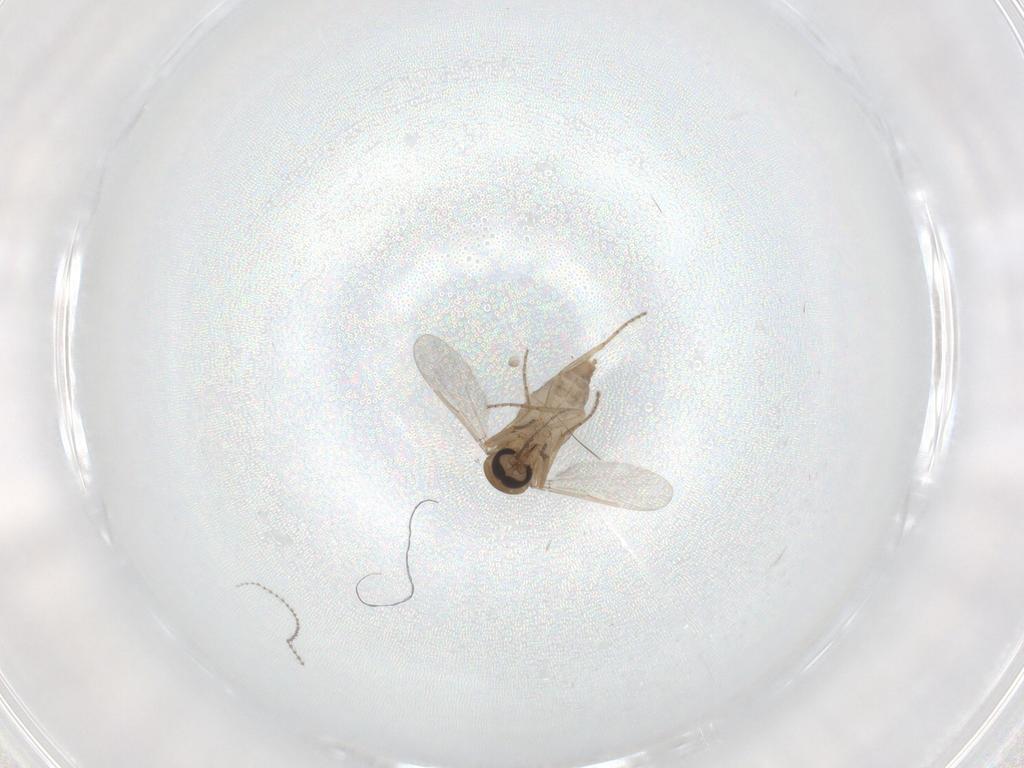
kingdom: Animalia
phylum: Arthropoda
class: Insecta
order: Diptera
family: Ceratopogonidae
